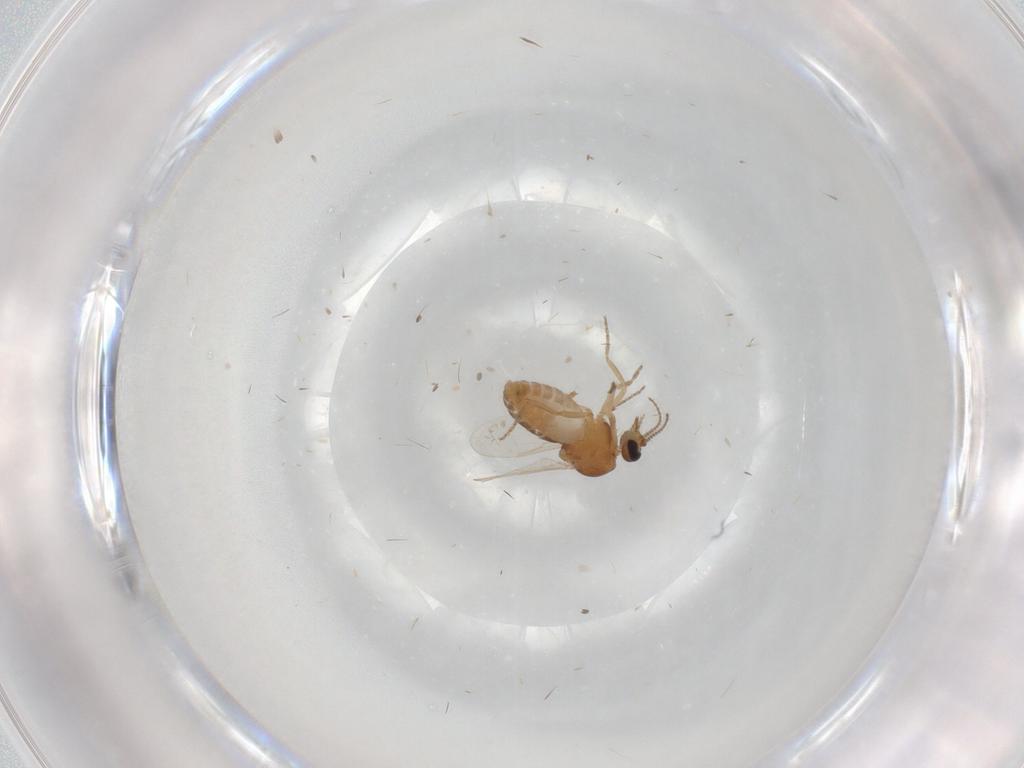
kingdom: Animalia
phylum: Arthropoda
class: Insecta
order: Diptera
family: Ceratopogonidae
